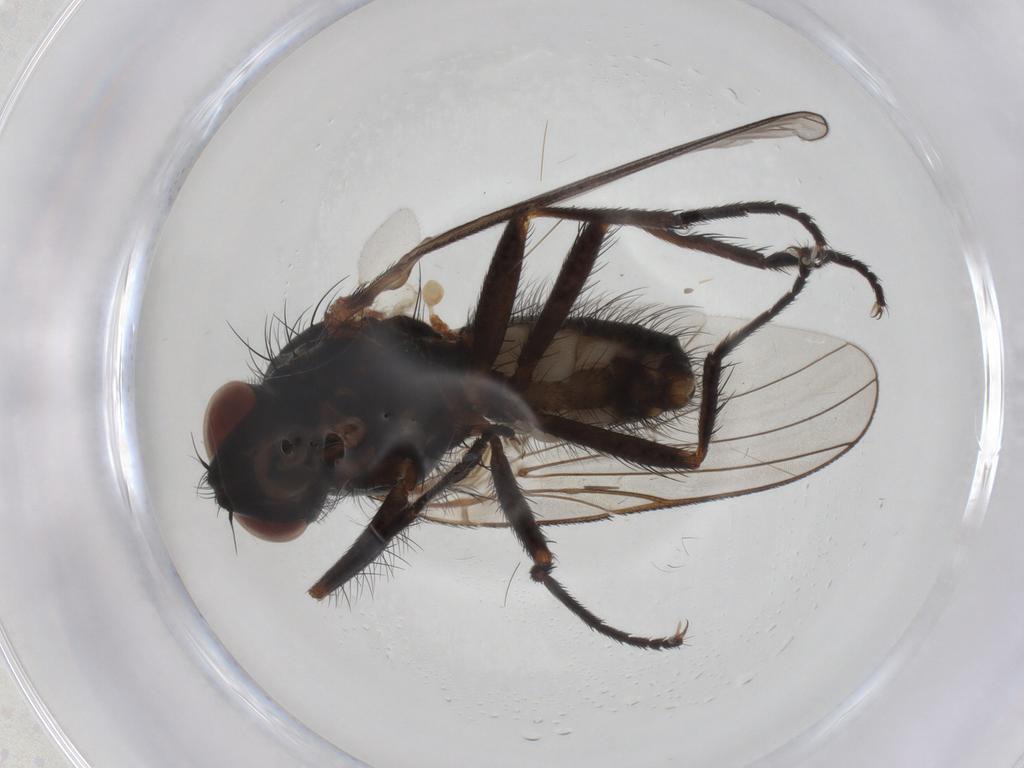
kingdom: Animalia
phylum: Arthropoda
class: Insecta
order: Diptera
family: Anthomyiidae
